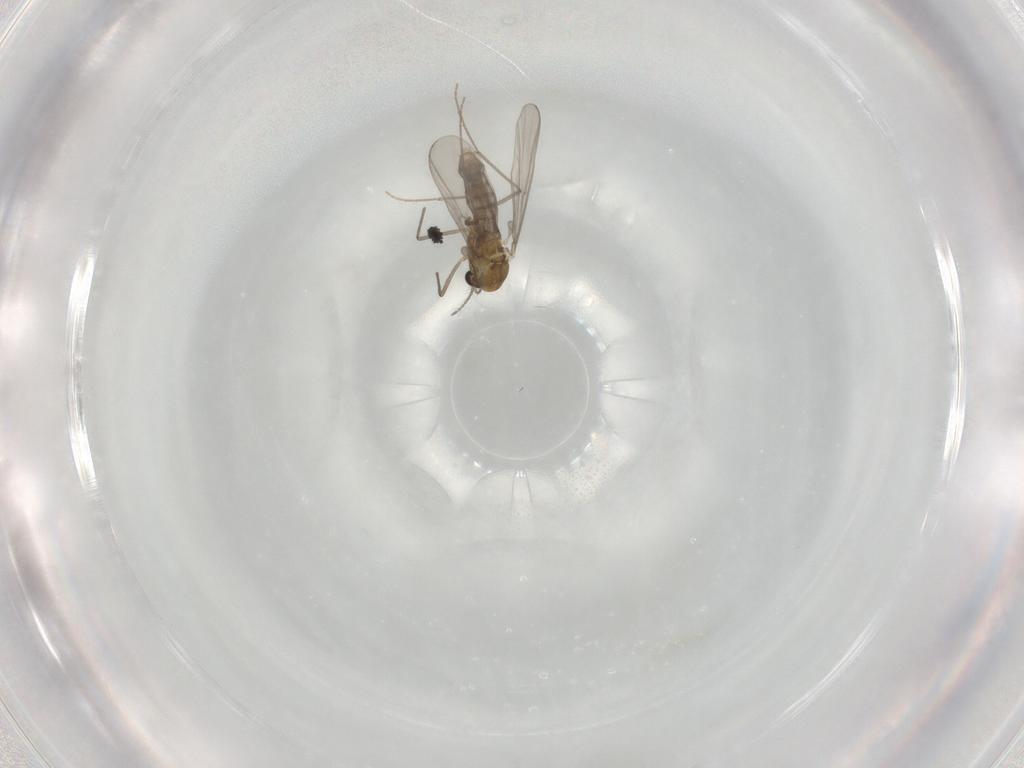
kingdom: Animalia
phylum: Arthropoda
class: Insecta
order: Diptera
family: Chironomidae
